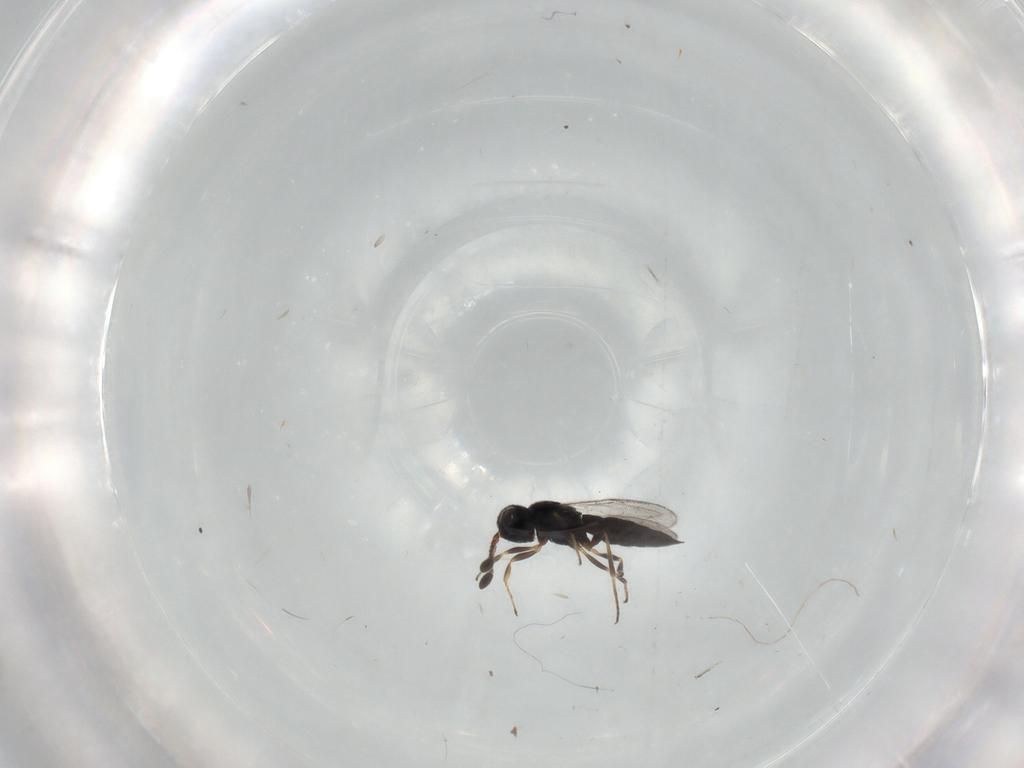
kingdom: Animalia
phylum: Arthropoda
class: Insecta
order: Hymenoptera
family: Scelionidae
